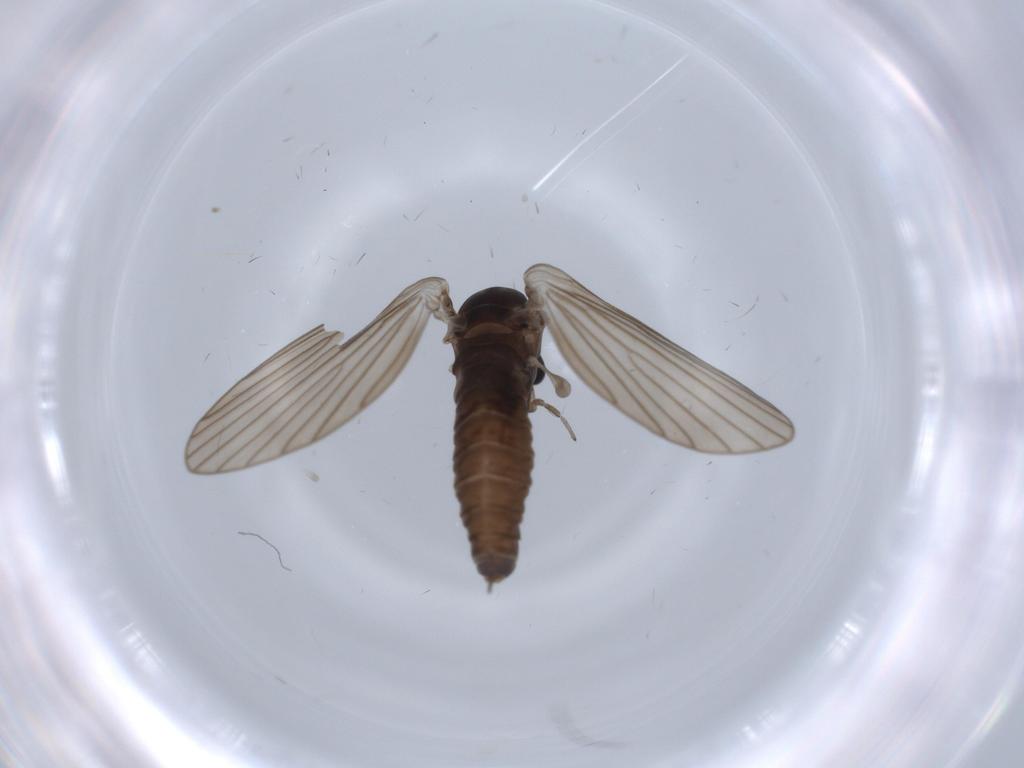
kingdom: Animalia
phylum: Arthropoda
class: Insecta
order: Diptera
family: Psychodidae
